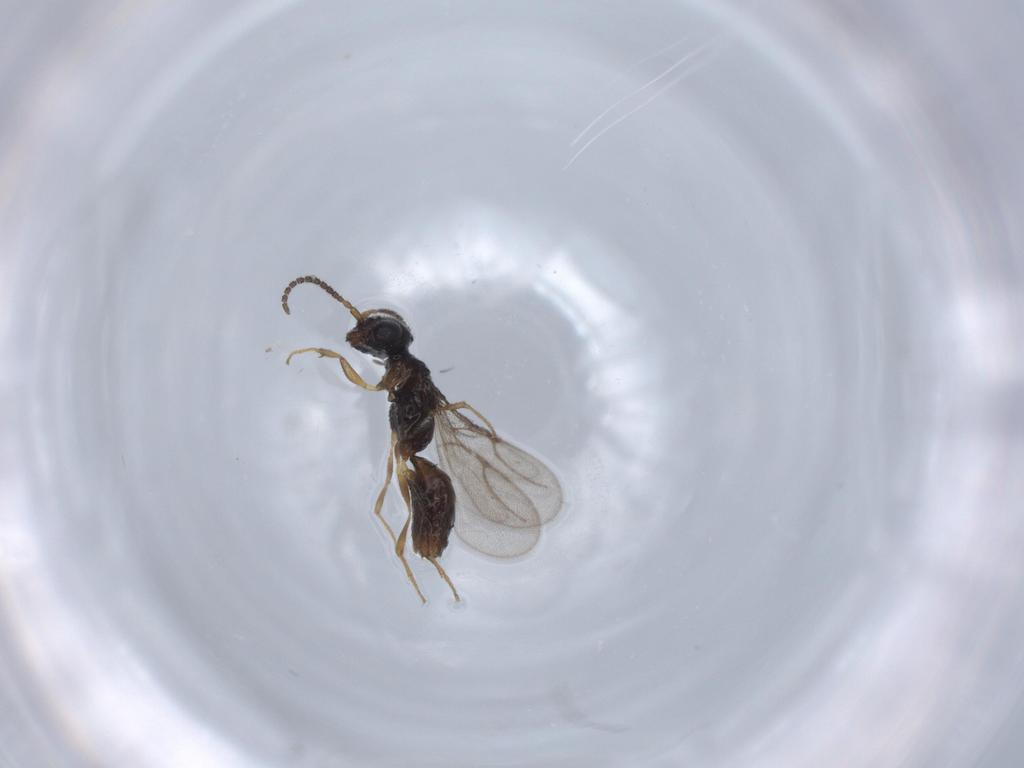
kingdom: Animalia
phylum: Arthropoda
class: Insecta
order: Hymenoptera
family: Bethylidae
